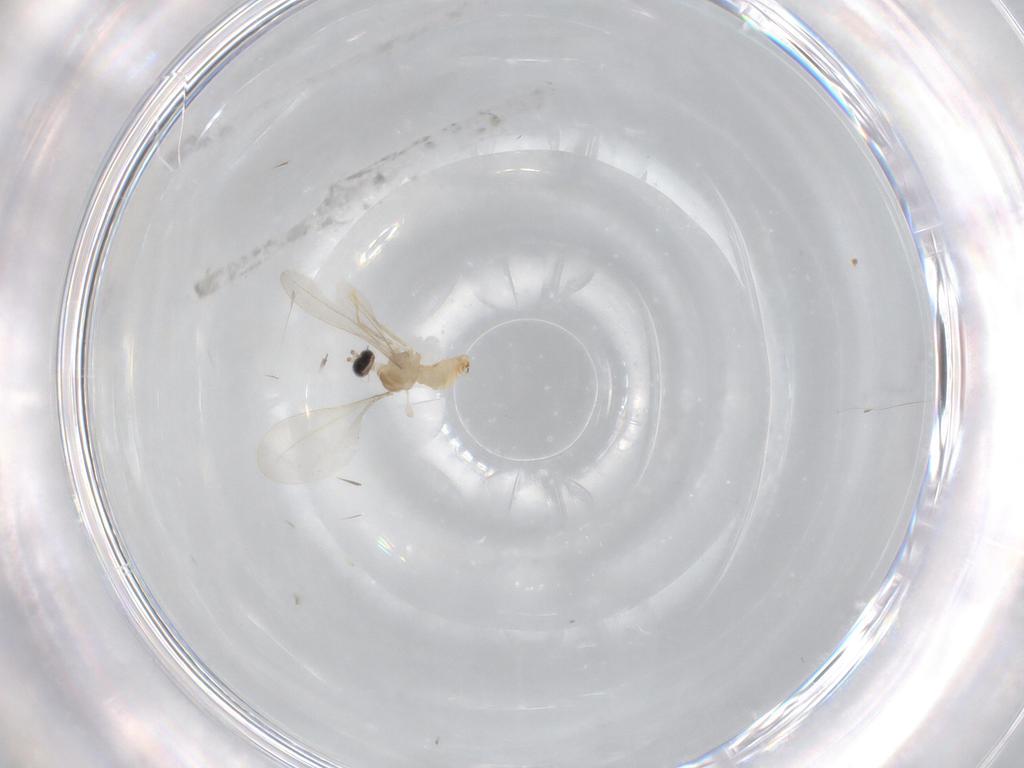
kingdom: Animalia
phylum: Arthropoda
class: Insecta
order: Diptera
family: Cecidomyiidae
